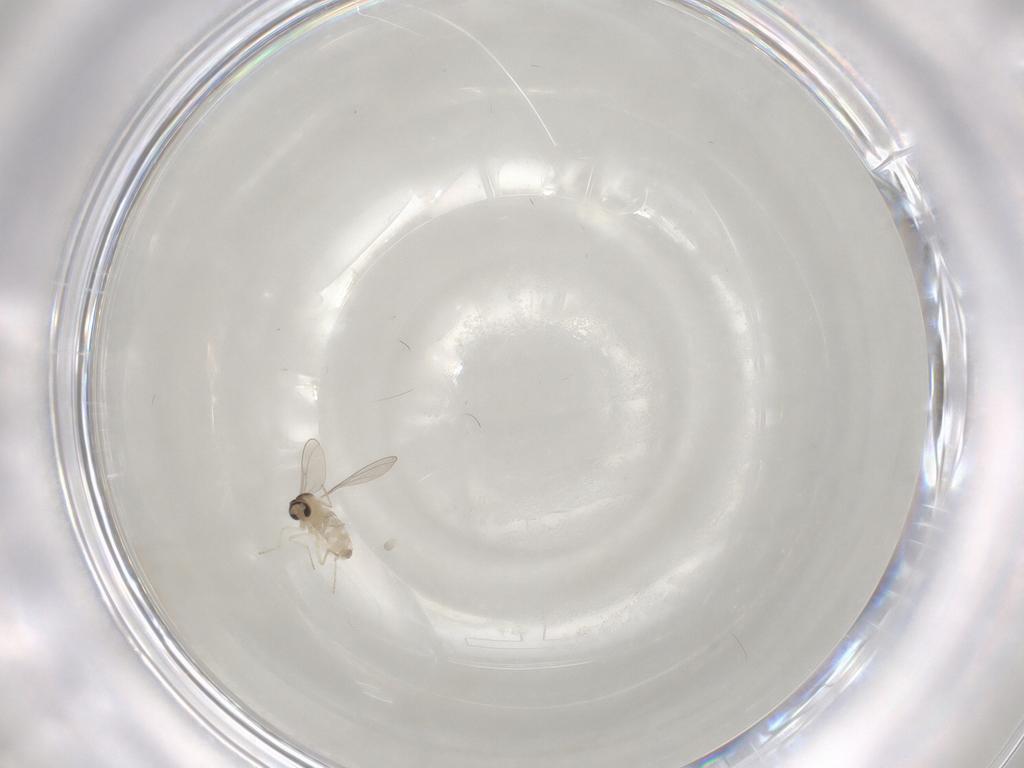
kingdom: Animalia
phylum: Arthropoda
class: Insecta
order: Diptera
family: Cecidomyiidae
